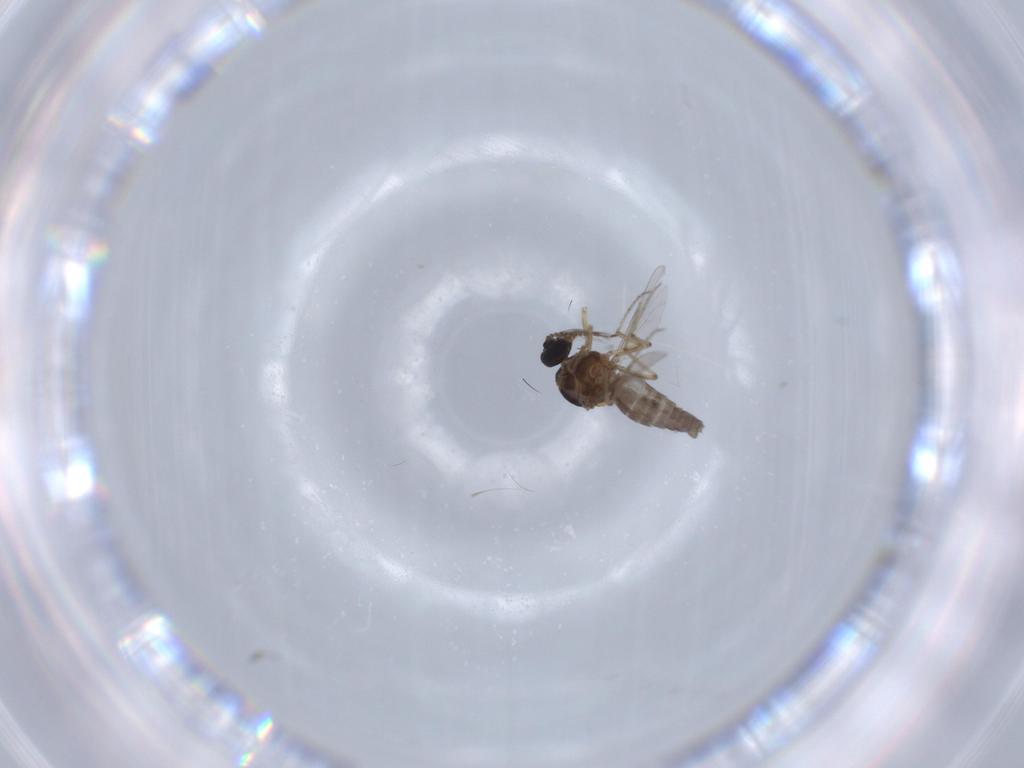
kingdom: Animalia
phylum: Arthropoda
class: Insecta
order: Diptera
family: Ceratopogonidae
